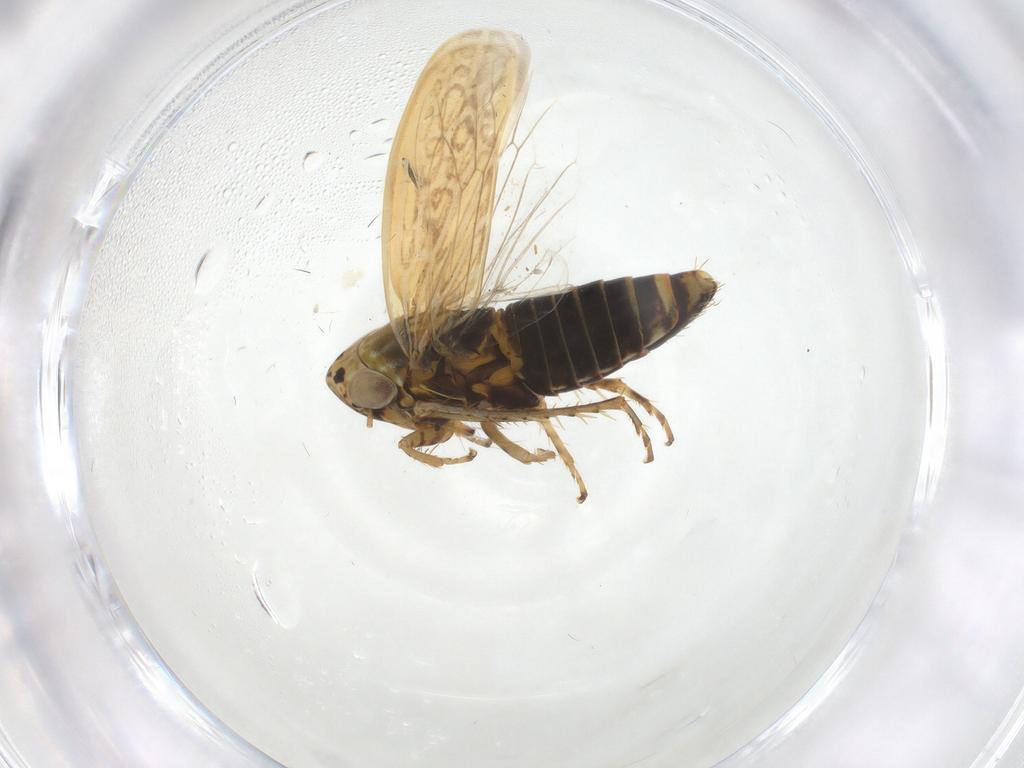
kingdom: Animalia
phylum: Arthropoda
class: Insecta
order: Hemiptera
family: Cicadellidae
